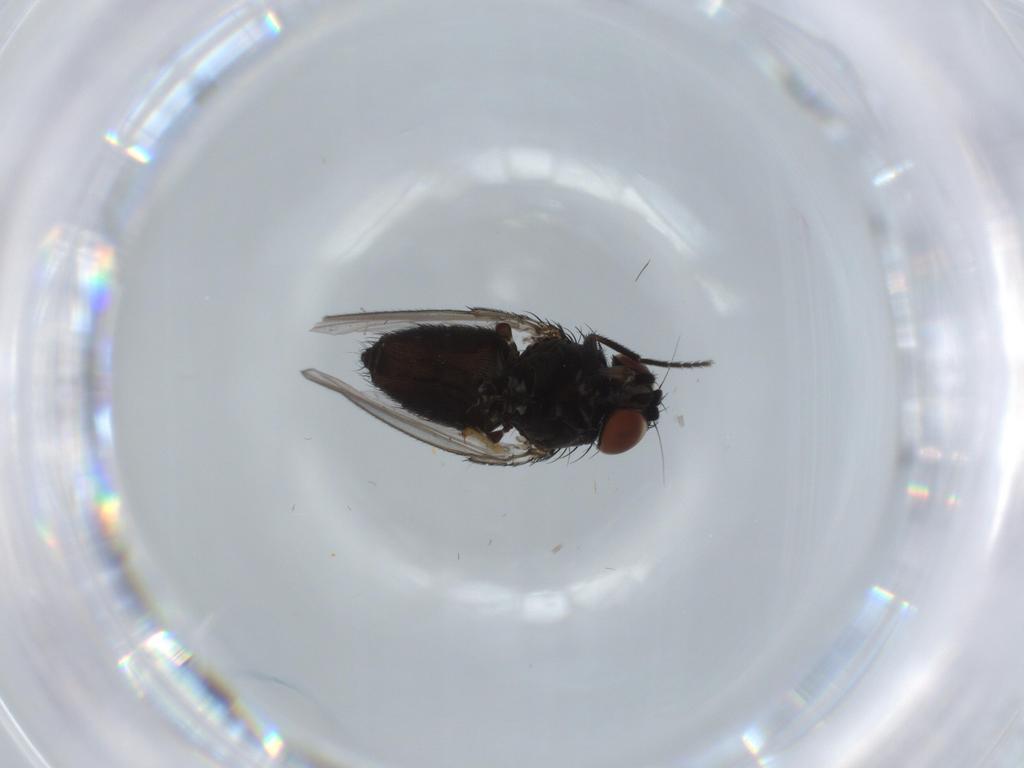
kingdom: Animalia
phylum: Arthropoda
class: Insecta
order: Diptera
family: Milichiidae
